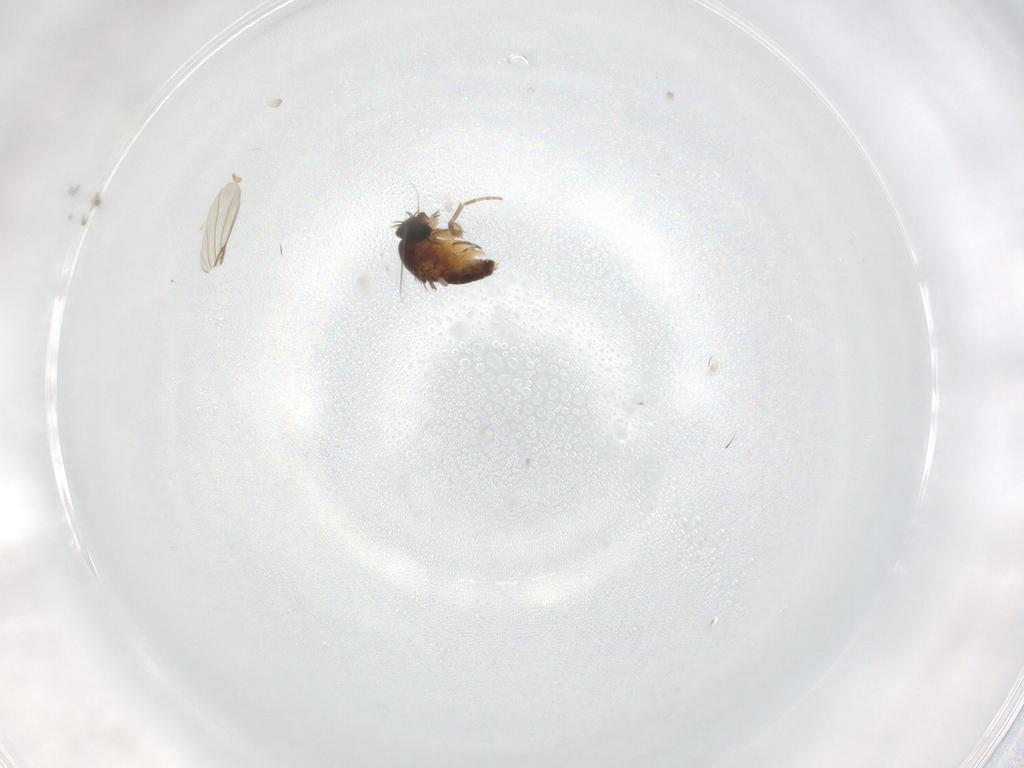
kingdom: Animalia
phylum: Arthropoda
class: Insecta
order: Diptera
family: Phoridae
